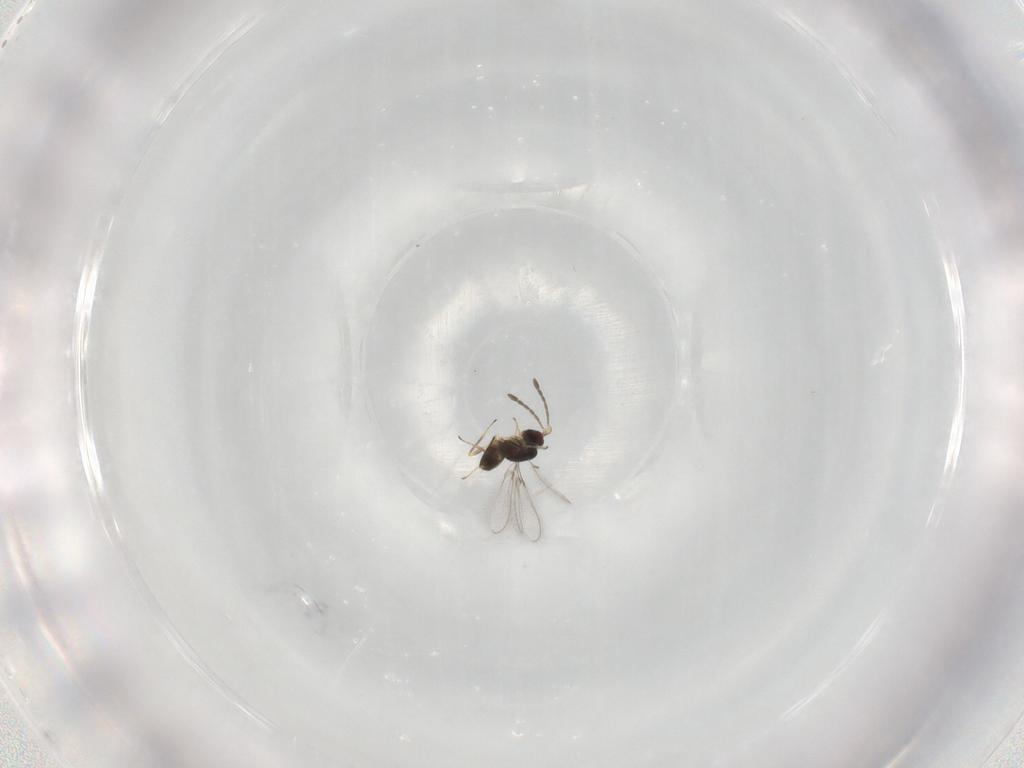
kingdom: Animalia
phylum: Arthropoda
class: Insecta
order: Hymenoptera
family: Mymaridae
